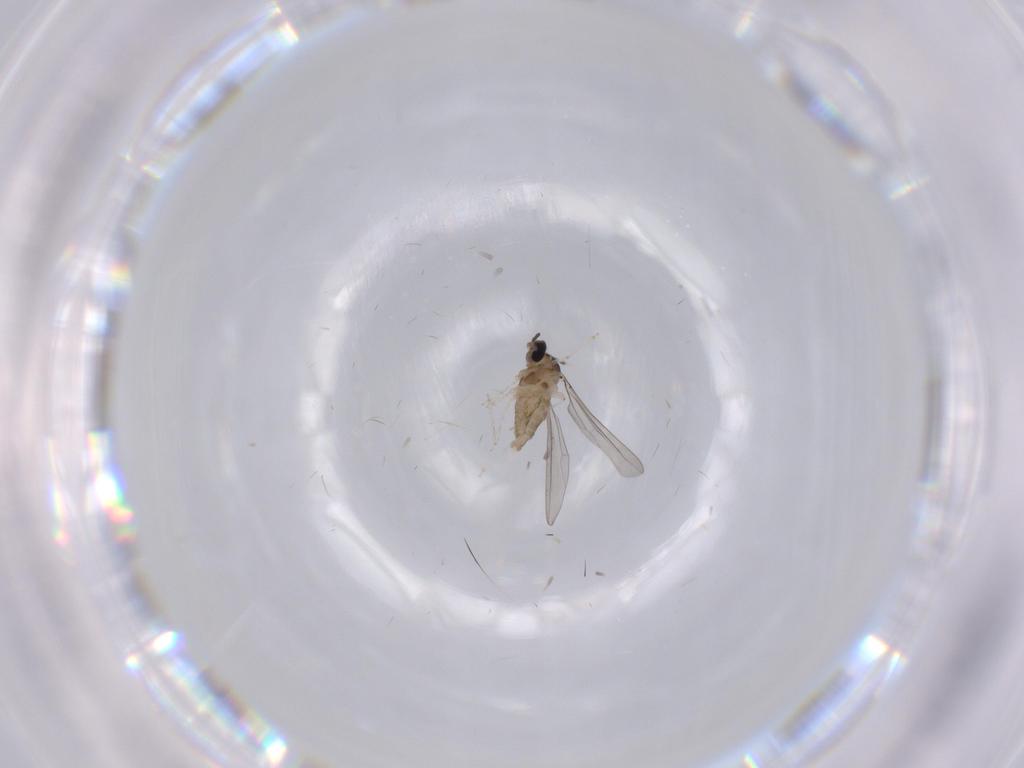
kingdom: Animalia
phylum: Arthropoda
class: Insecta
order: Diptera
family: Cecidomyiidae
